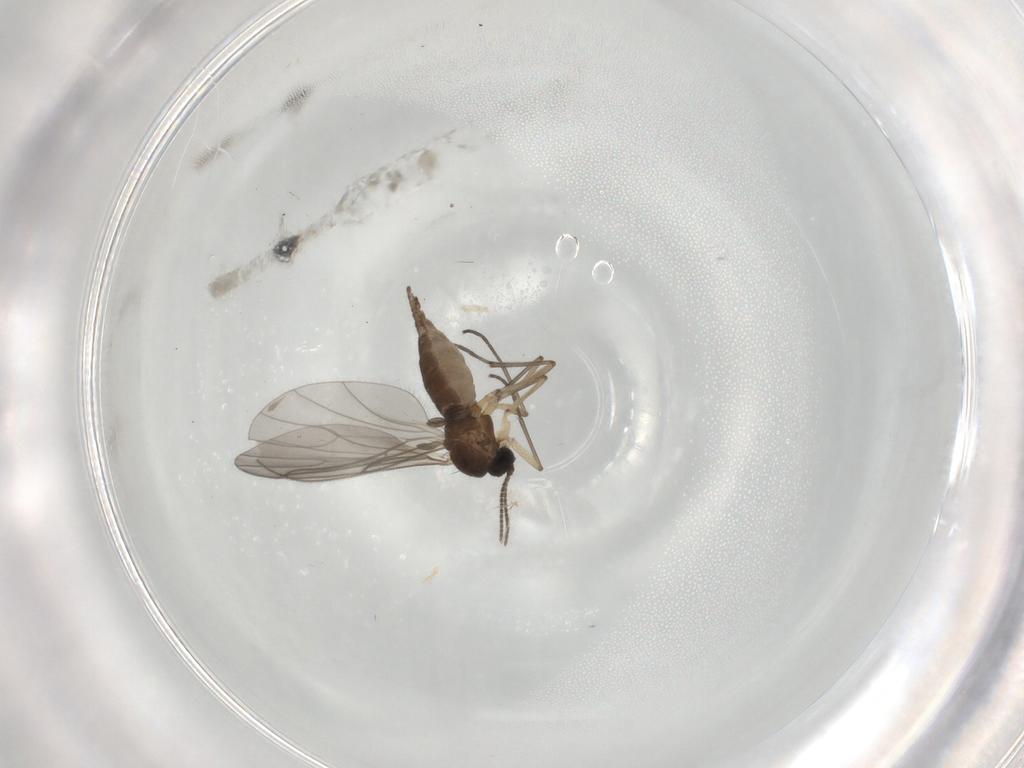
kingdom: Animalia
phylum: Arthropoda
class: Insecta
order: Diptera
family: Sciaridae
